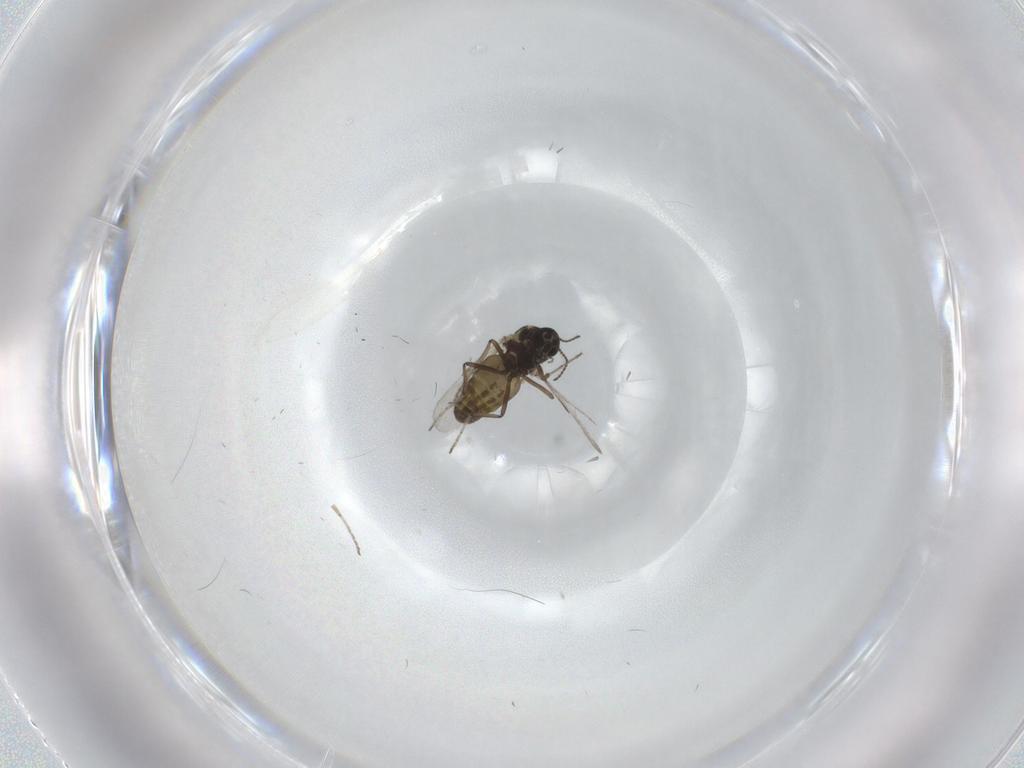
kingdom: Animalia
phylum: Arthropoda
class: Insecta
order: Diptera
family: Ceratopogonidae
